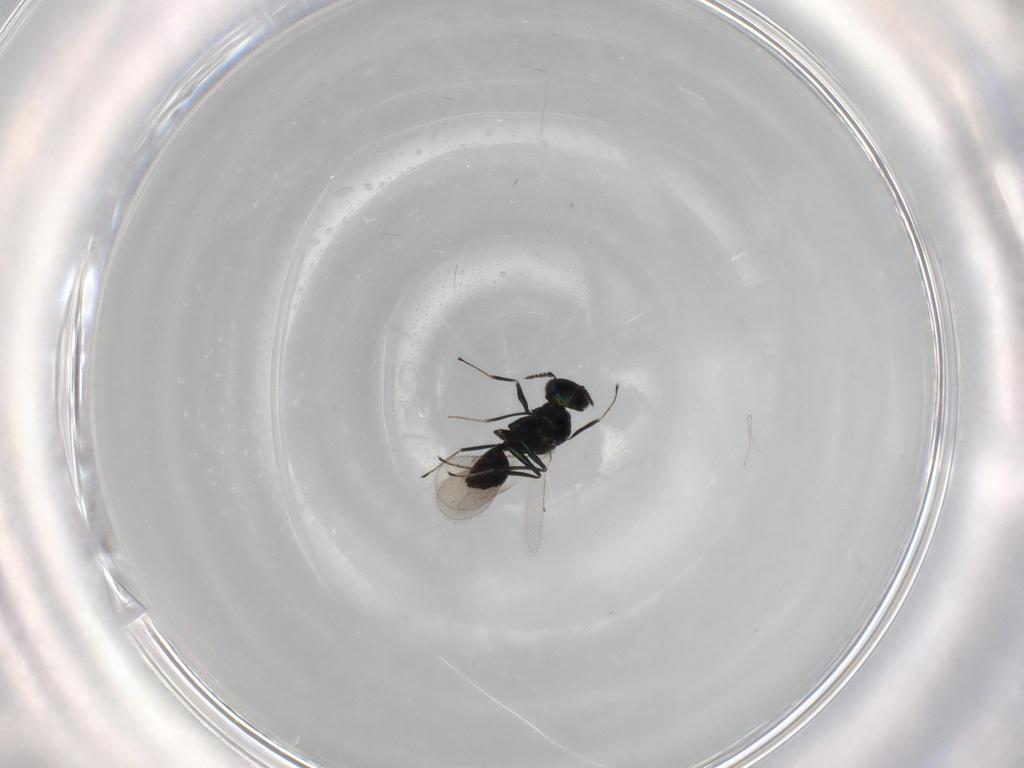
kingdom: Animalia
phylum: Arthropoda
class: Insecta
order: Hymenoptera
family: Eulophidae
